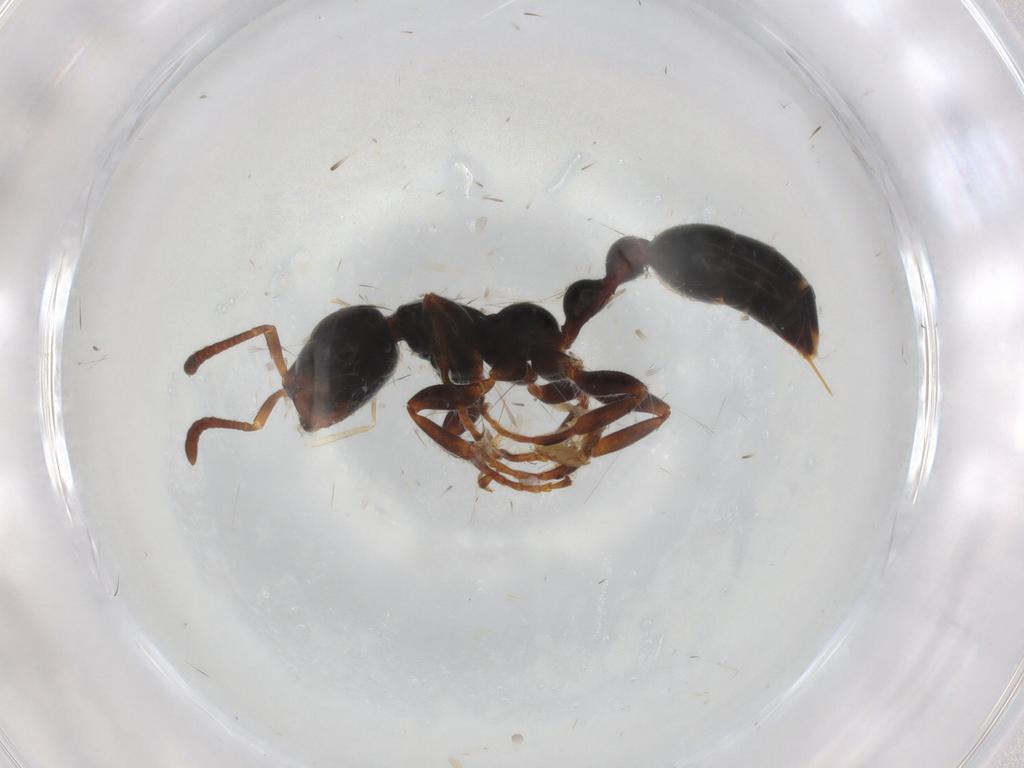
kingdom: Animalia
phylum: Arthropoda
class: Insecta
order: Hymenoptera
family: Formicidae
